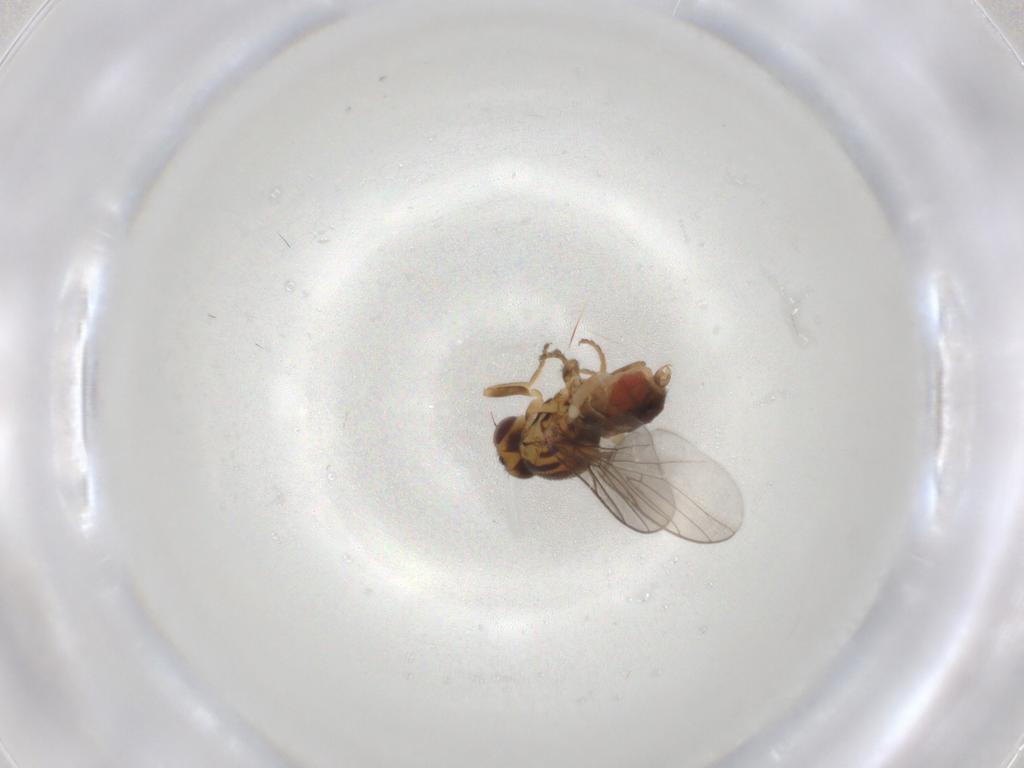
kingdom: Animalia
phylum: Arthropoda
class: Insecta
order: Diptera
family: Chloropidae
